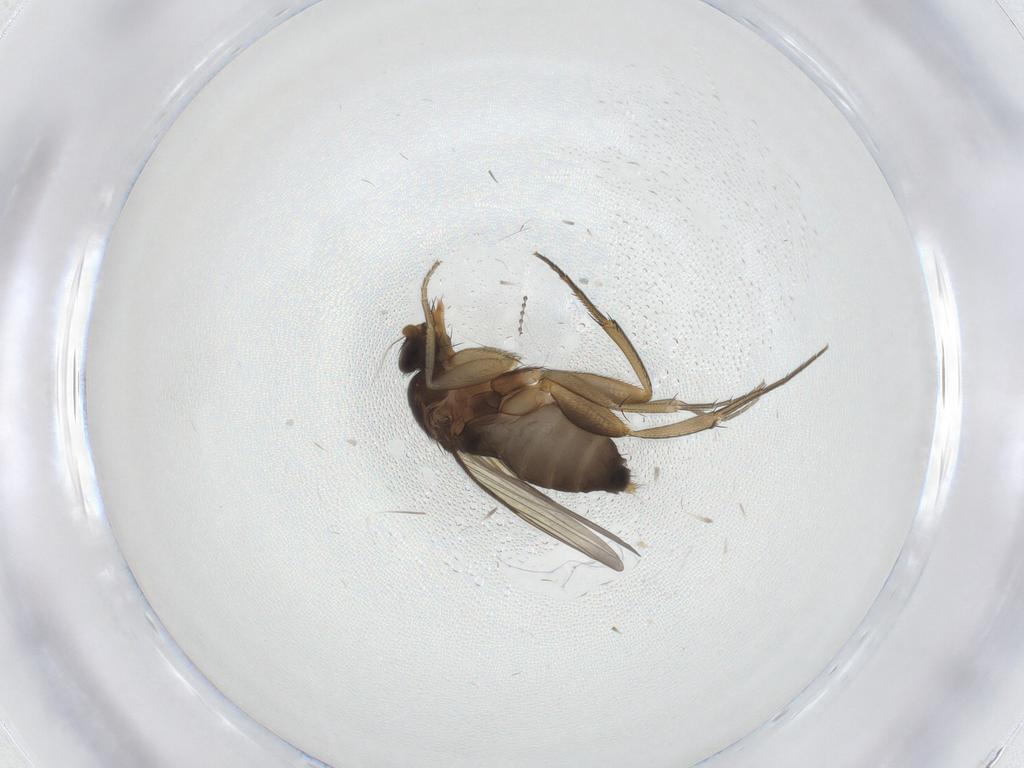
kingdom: Animalia
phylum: Arthropoda
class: Insecta
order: Diptera
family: Phoridae
